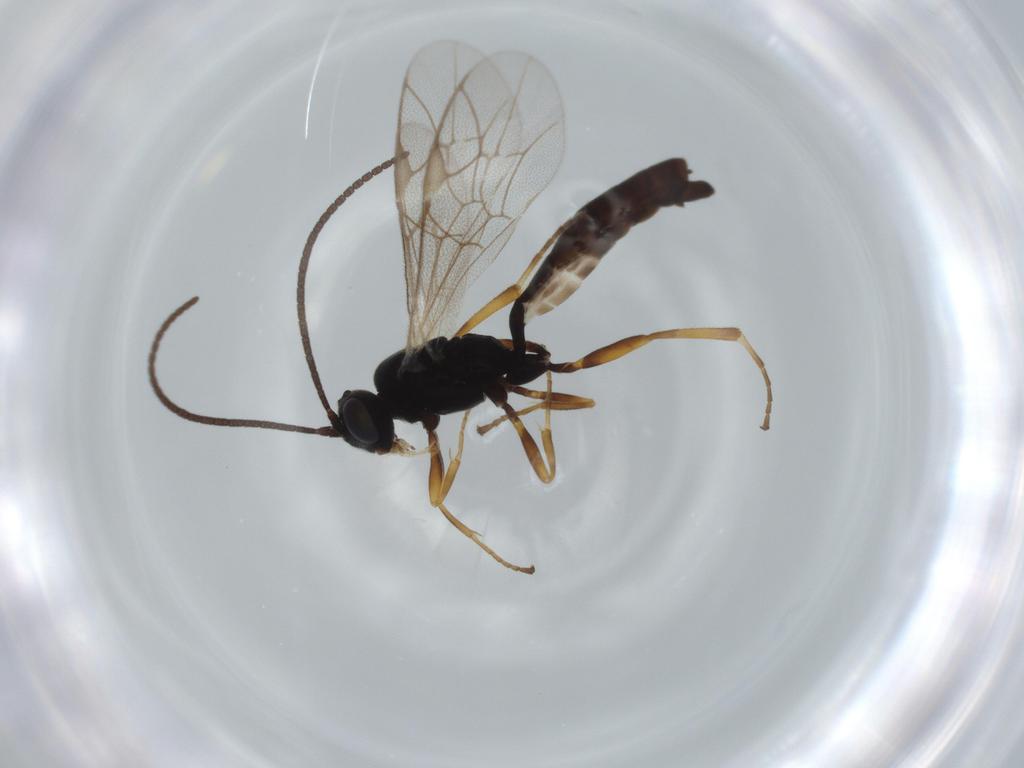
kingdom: Animalia
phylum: Arthropoda
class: Insecta
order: Hymenoptera
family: Ichneumonidae
